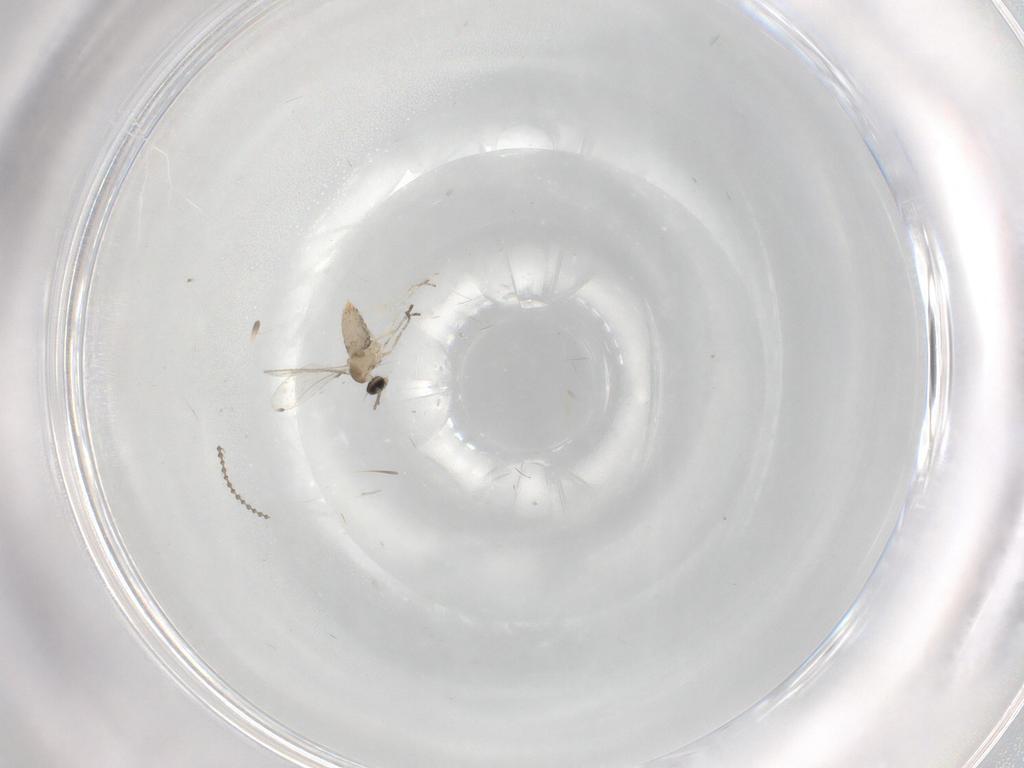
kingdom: Animalia
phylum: Arthropoda
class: Insecta
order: Diptera
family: Cecidomyiidae
